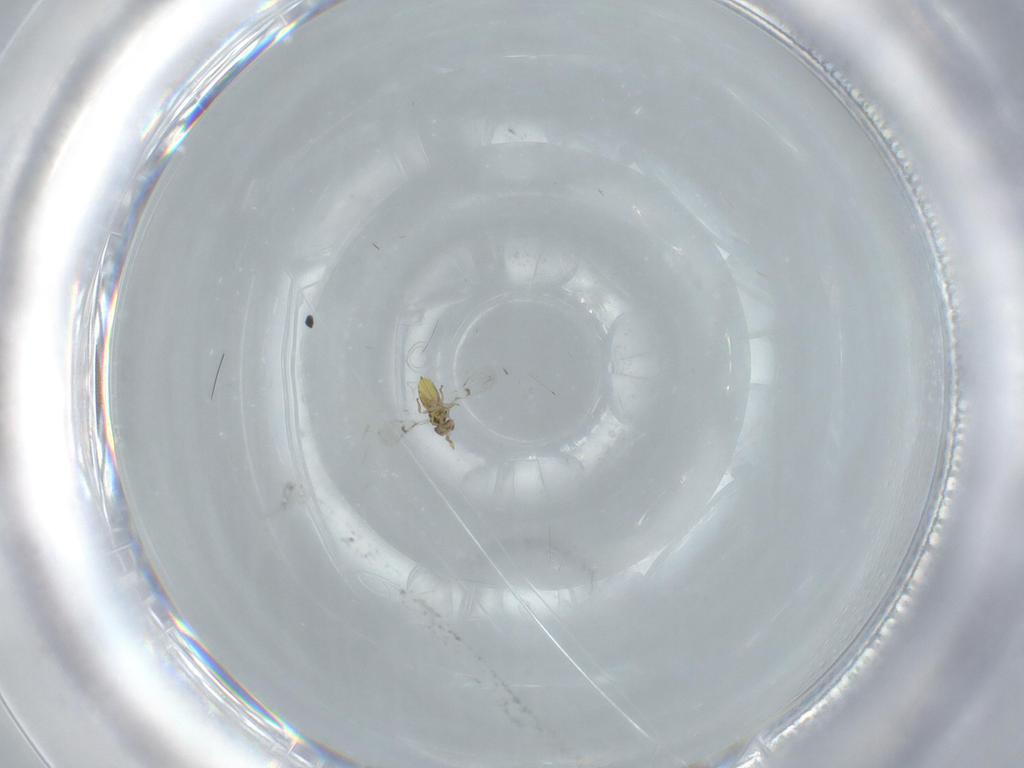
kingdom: Animalia
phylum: Arthropoda
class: Insecta
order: Hymenoptera
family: Trichogrammatidae
